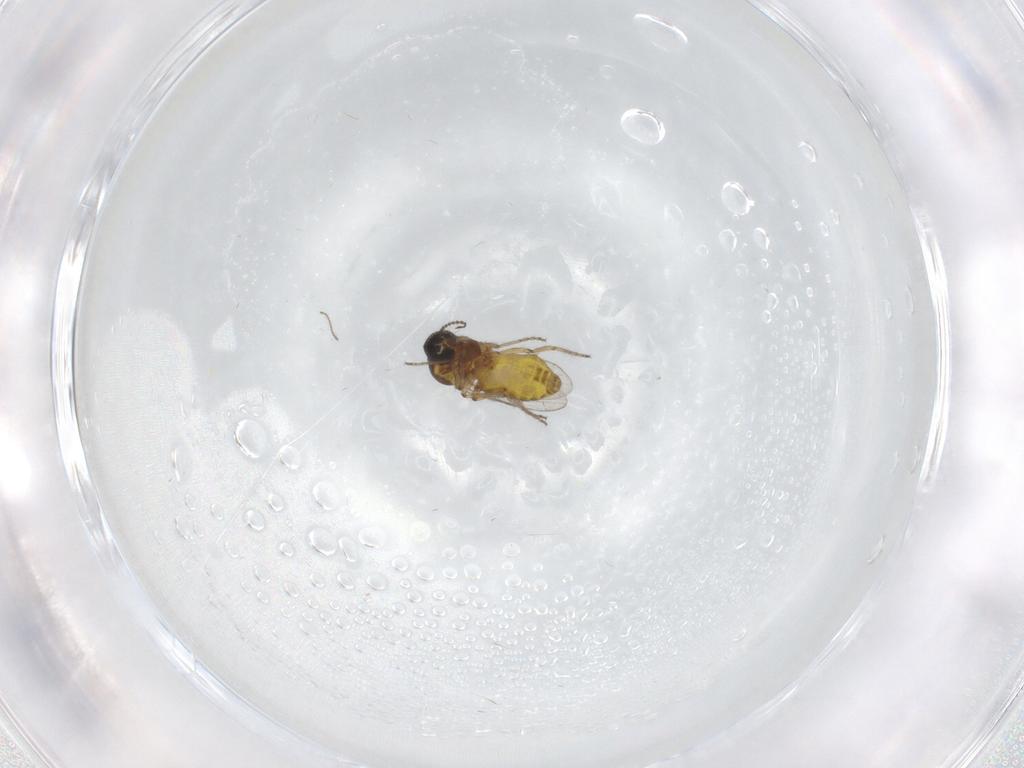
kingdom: Animalia
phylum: Arthropoda
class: Insecta
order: Diptera
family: Ceratopogonidae
